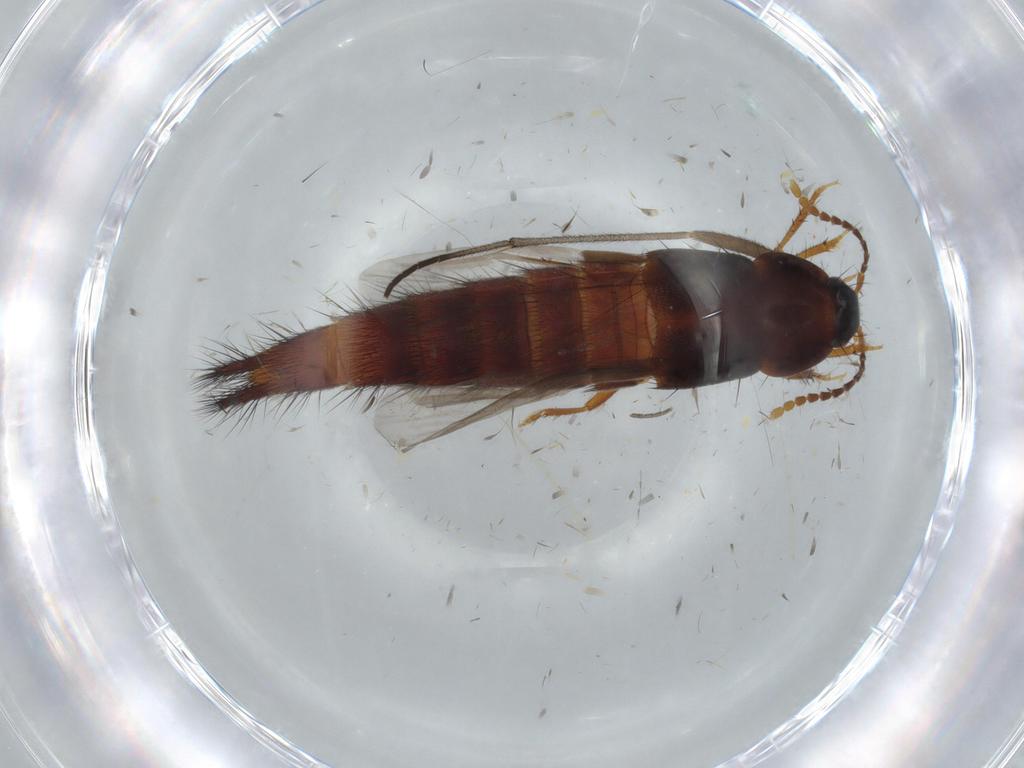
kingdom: Animalia
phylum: Arthropoda
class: Insecta
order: Coleoptera
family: Staphylinidae
